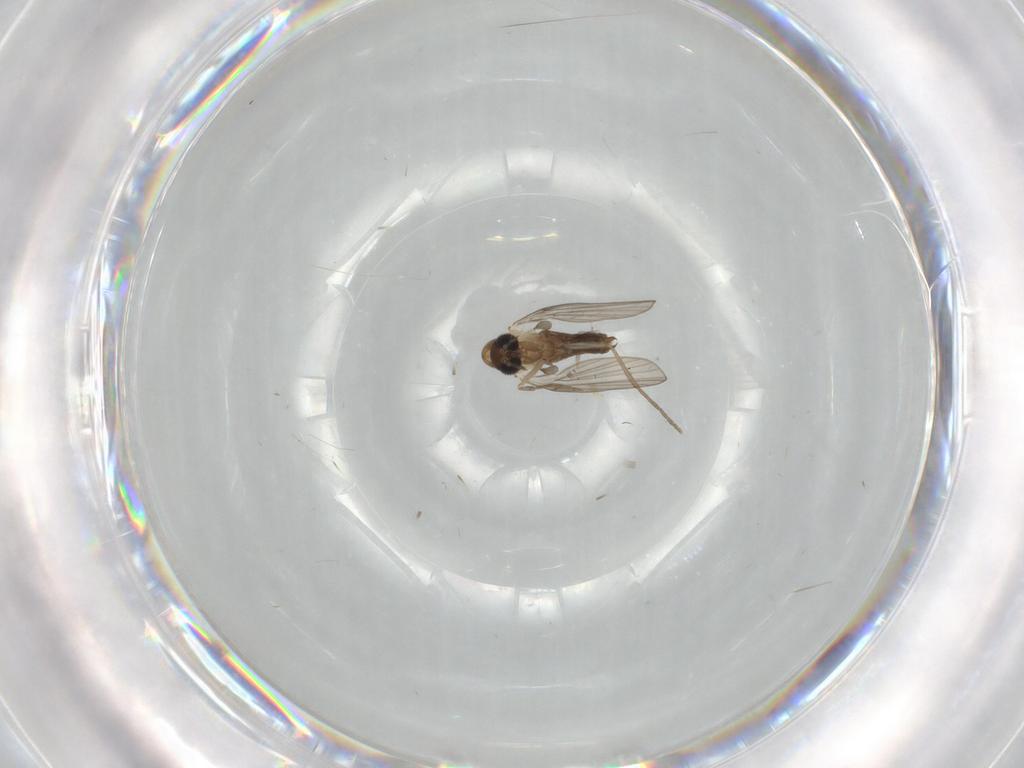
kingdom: Animalia
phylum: Arthropoda
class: Insecta
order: Diptera
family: Psychodidae
